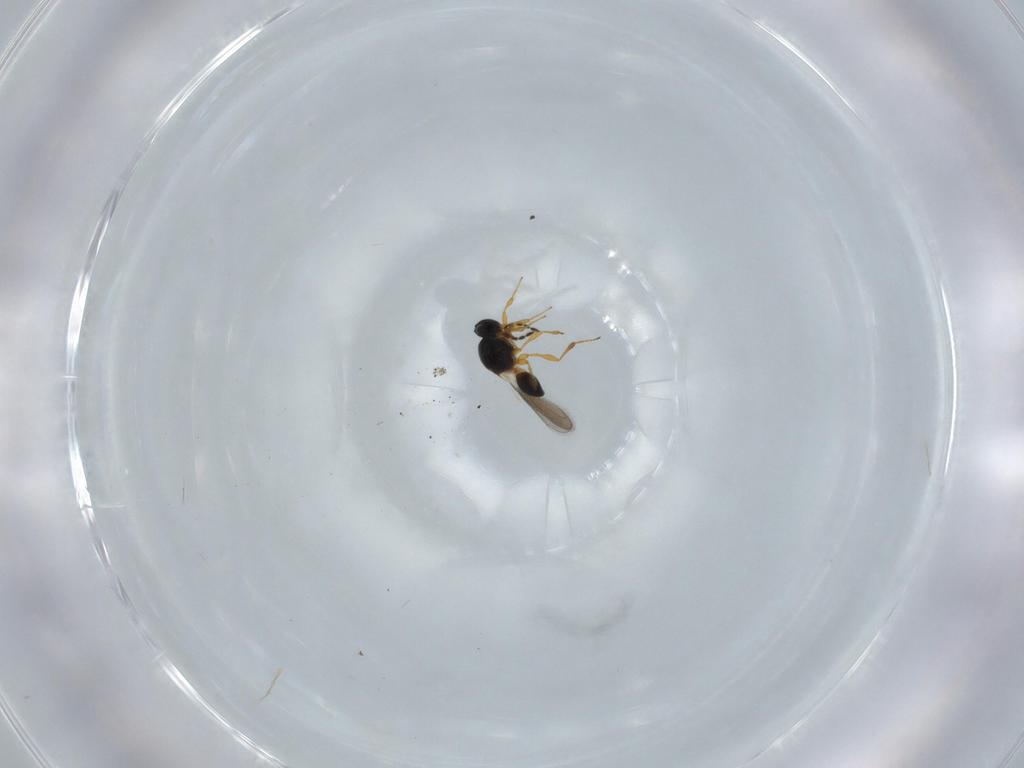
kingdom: Animalia
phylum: Arthropoda
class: Insecta
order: Hymenoptera
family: Platygastridae
